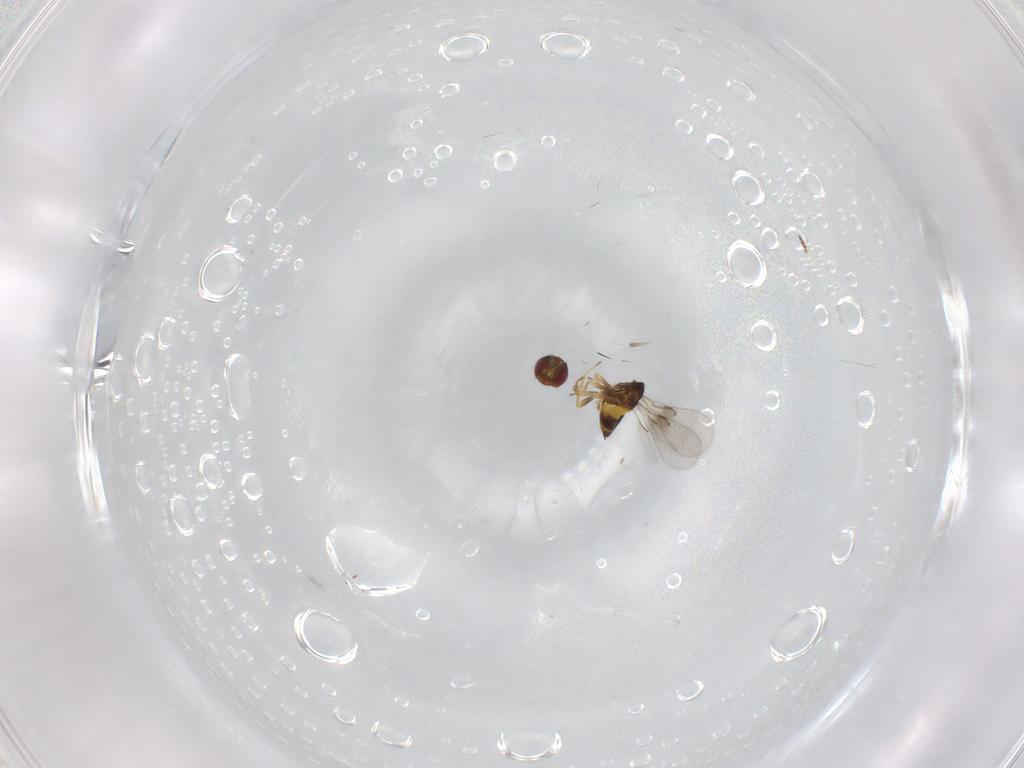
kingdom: Animalia
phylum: Arthropoda
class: Insecta
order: Hymenoptera
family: Trichogrammatidae
